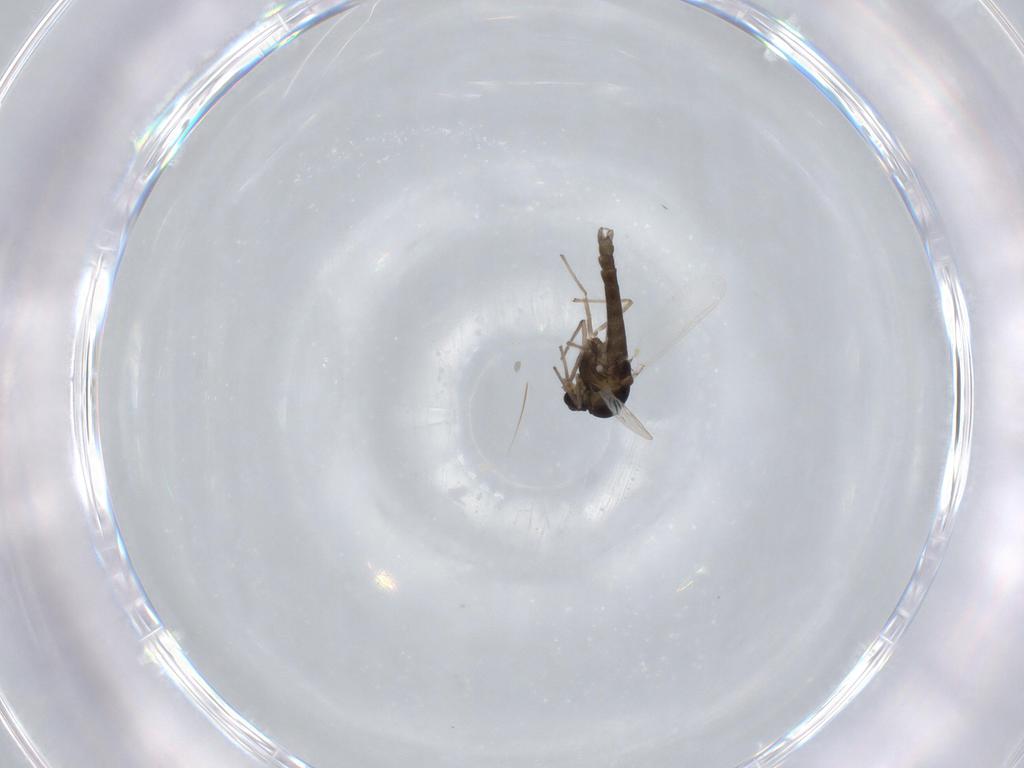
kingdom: Animalia
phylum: Arthropoda
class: Insecta
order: Diptera
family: Chironomidae
